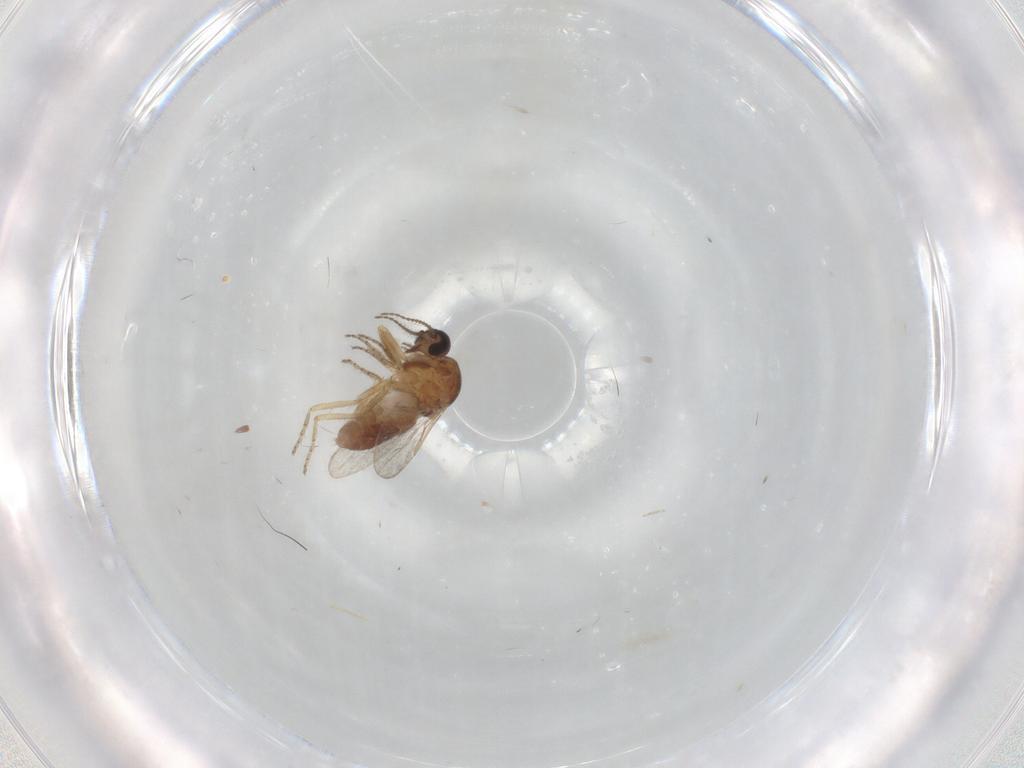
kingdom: Animalia
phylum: Arthropoda
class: Insecta
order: Diptera
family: Ceratopogonidae
